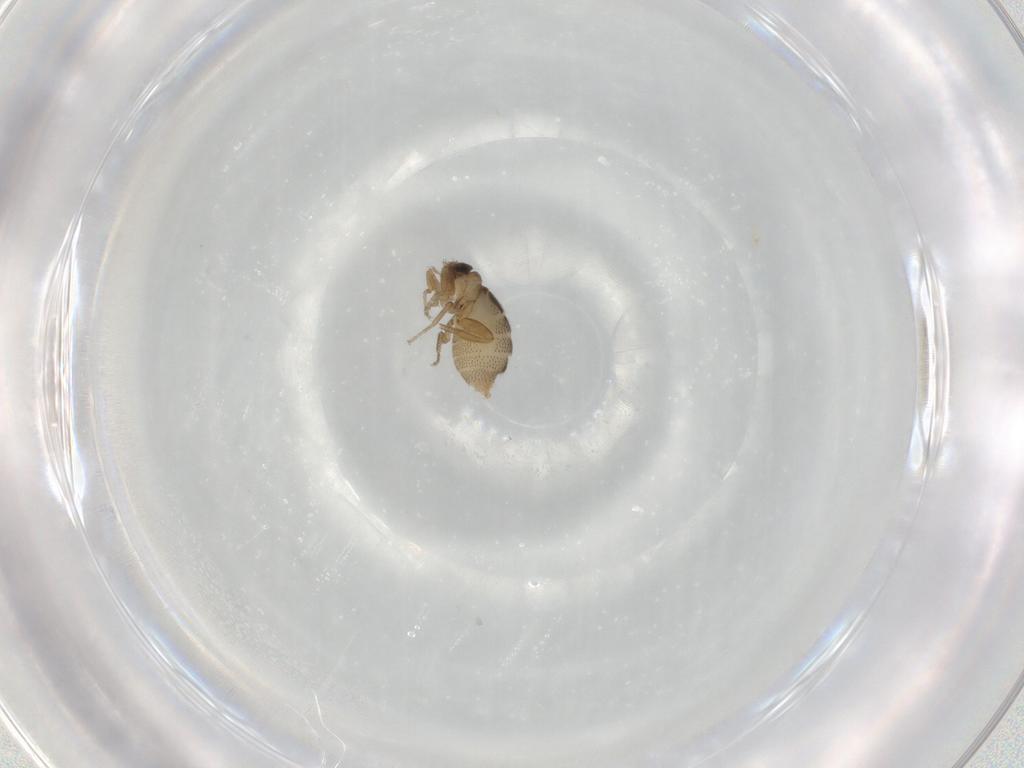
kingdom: Animalia
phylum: Arthropoda
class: Insecta
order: Diptera
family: Phoridae
